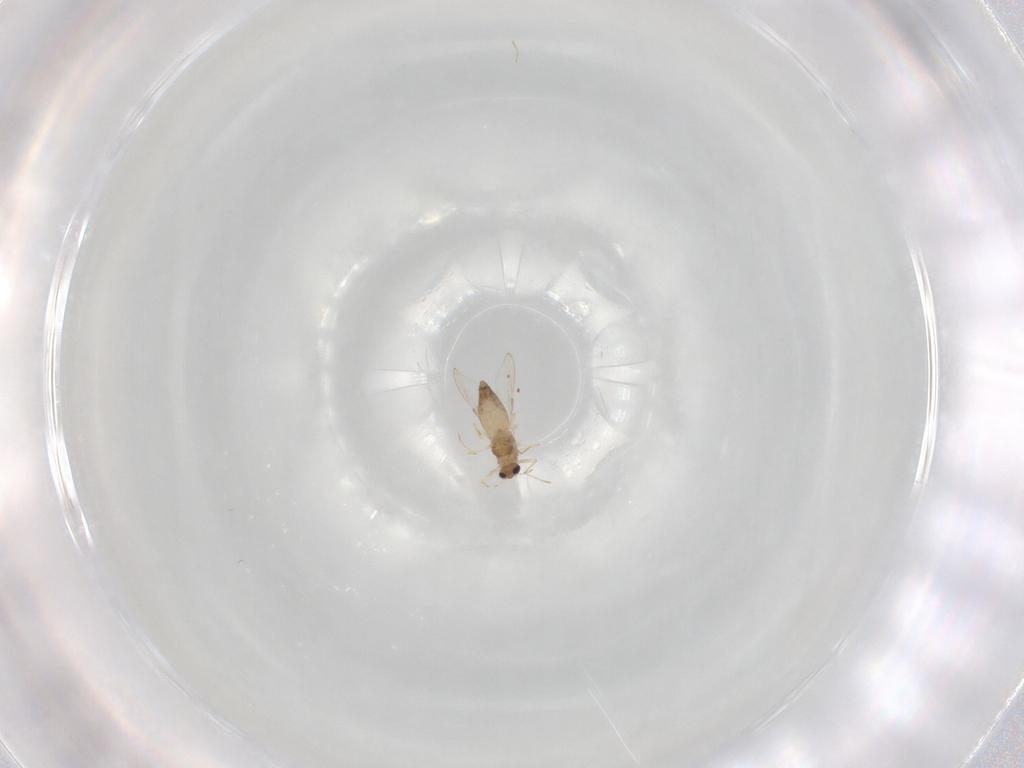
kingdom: Animalia
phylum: Arthropoda
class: Insecta
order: Diptera
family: Chironomidae
